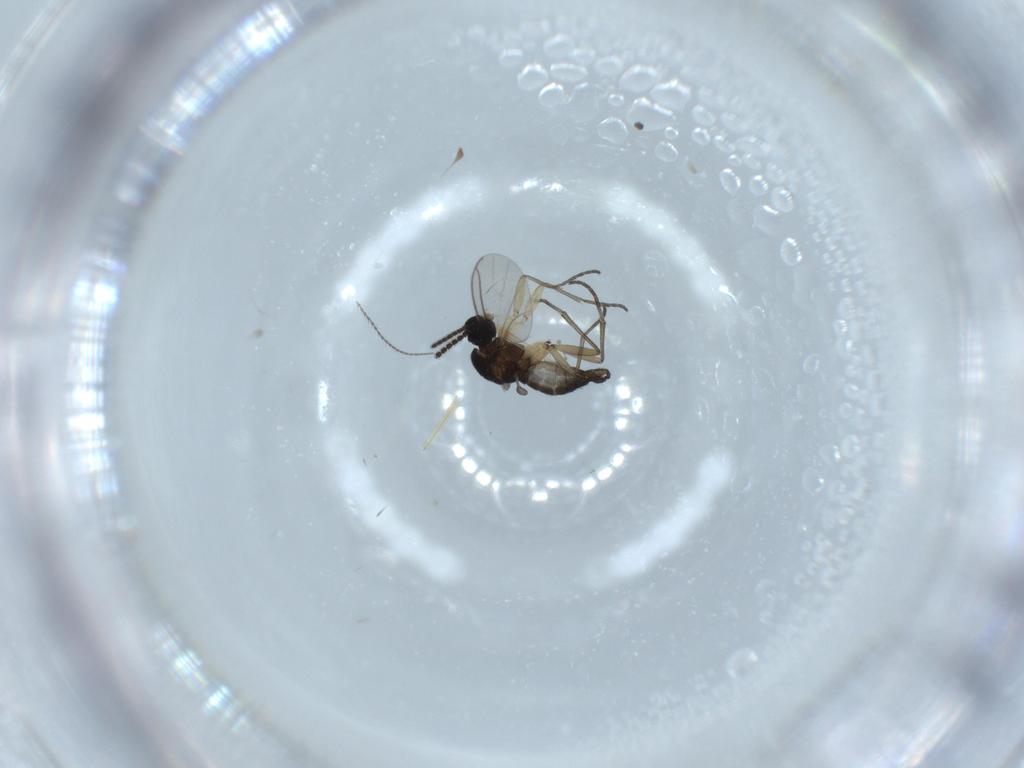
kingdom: Animalia
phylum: Arthropoda
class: Insecta
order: Diptera
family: Sciaridae
